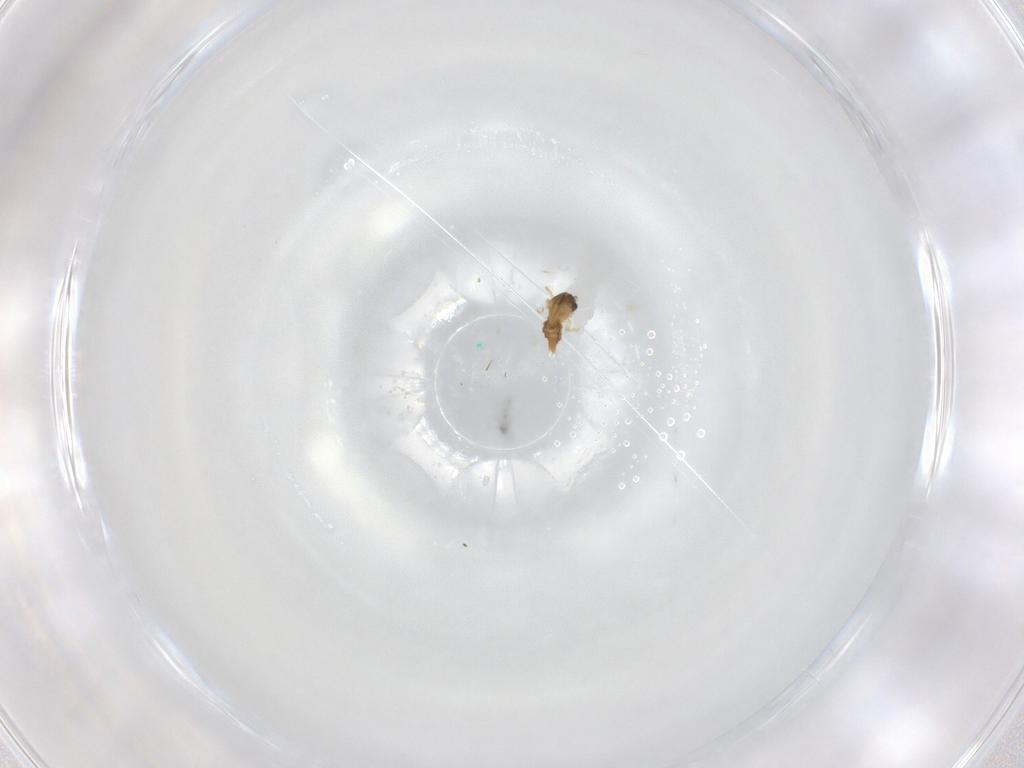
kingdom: Animalia
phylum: Arthropoda
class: Insecta
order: Diptera
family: Cecidomyiidae
